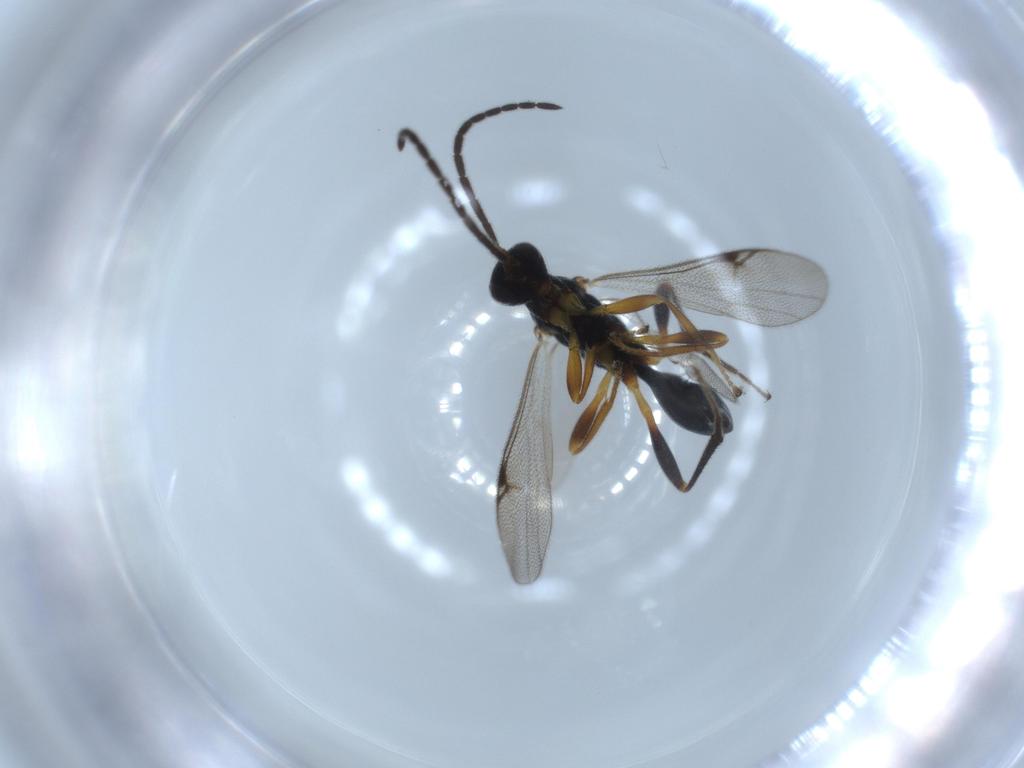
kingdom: Animalia
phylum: Arthropoda
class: Insecta
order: Hymenoptera
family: Proctotrupidae
